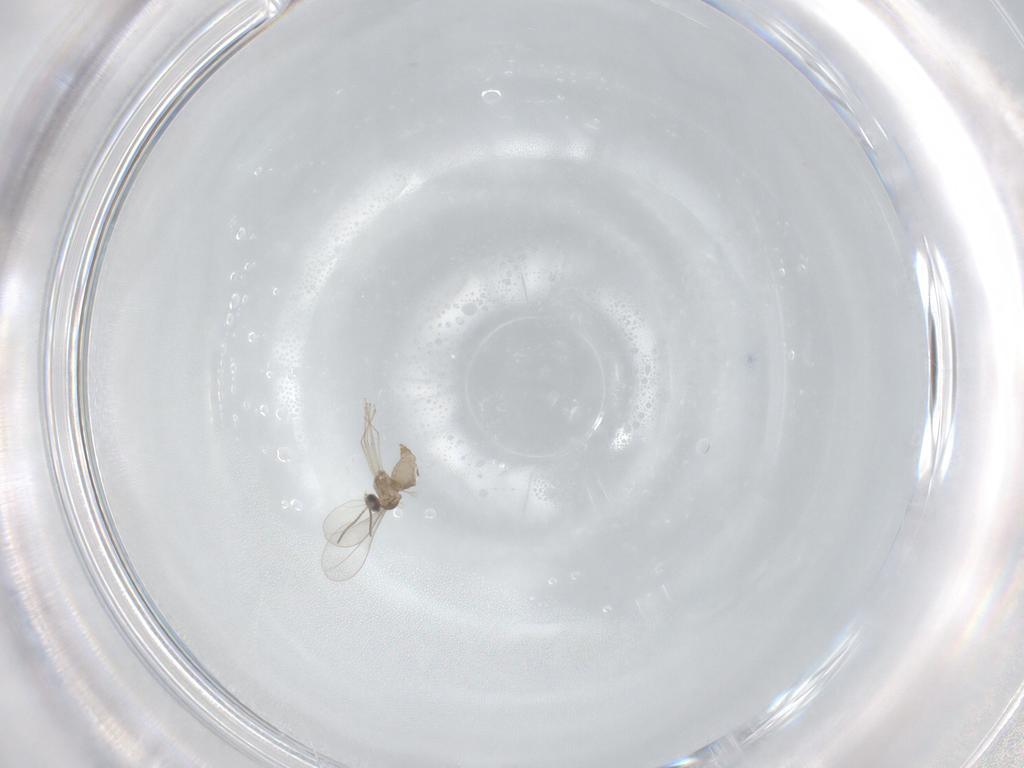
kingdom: Animalia
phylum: Arthropoda
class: Insecta
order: Diptera
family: Cecidomyiidae
